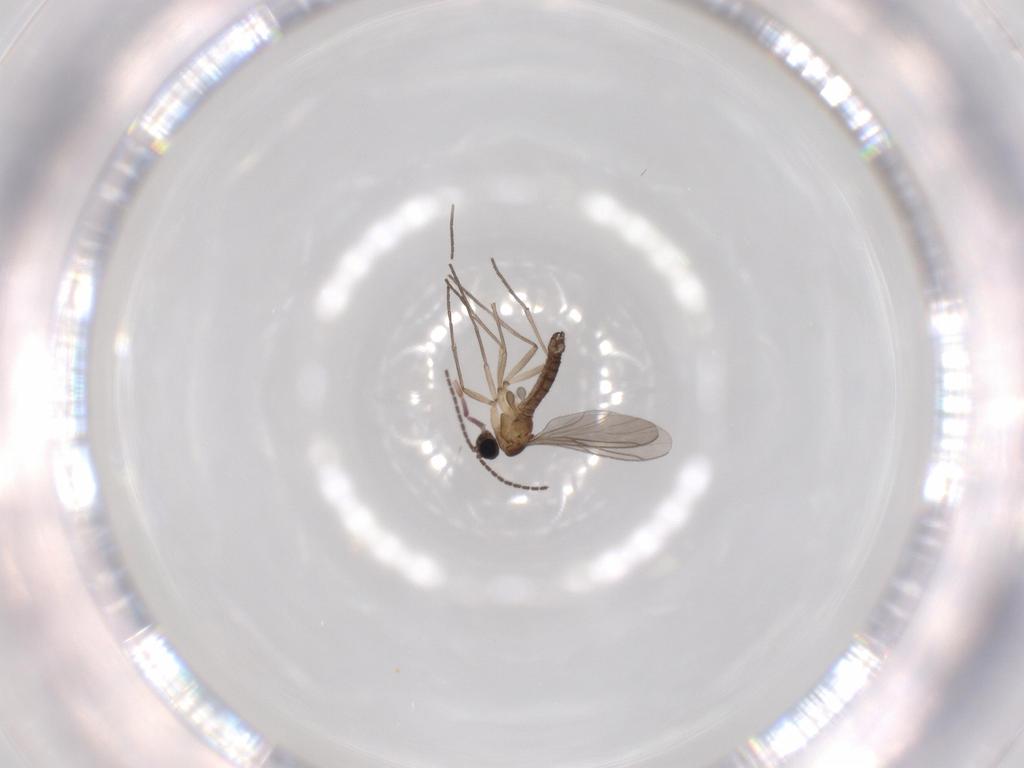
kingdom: Animalia
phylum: Arthropoda
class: Insecta
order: Diptera
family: Sciaridae
